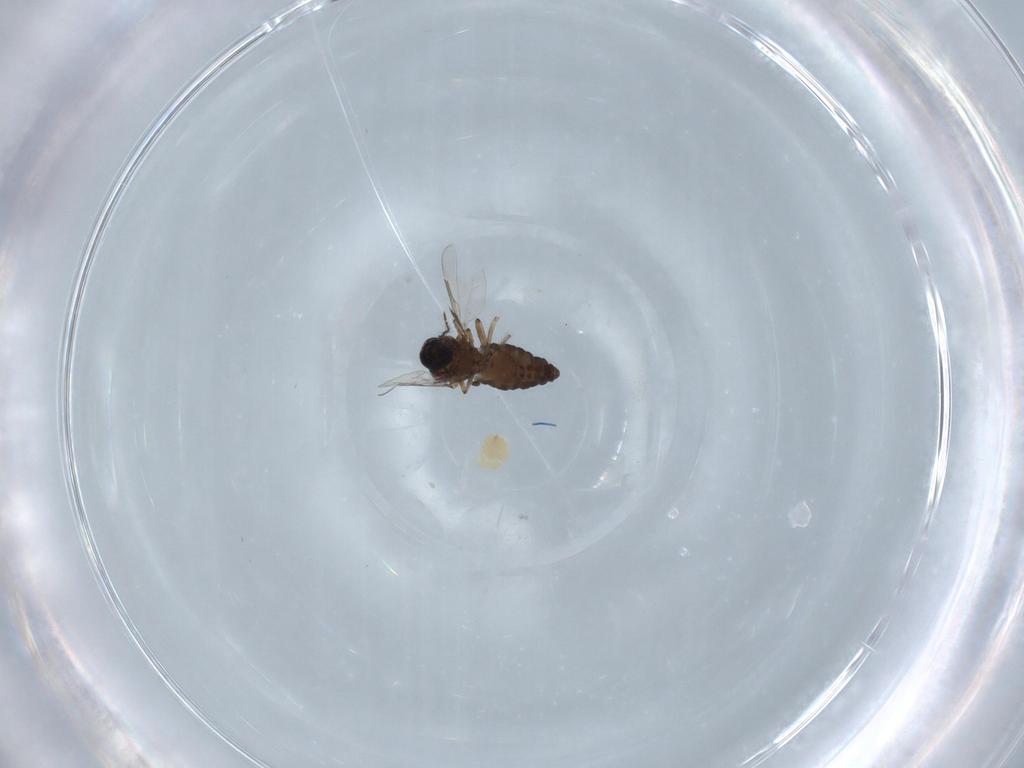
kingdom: Animalia
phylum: Arthropoda
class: Insecta
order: Diptera
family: Ceratopogonidae
